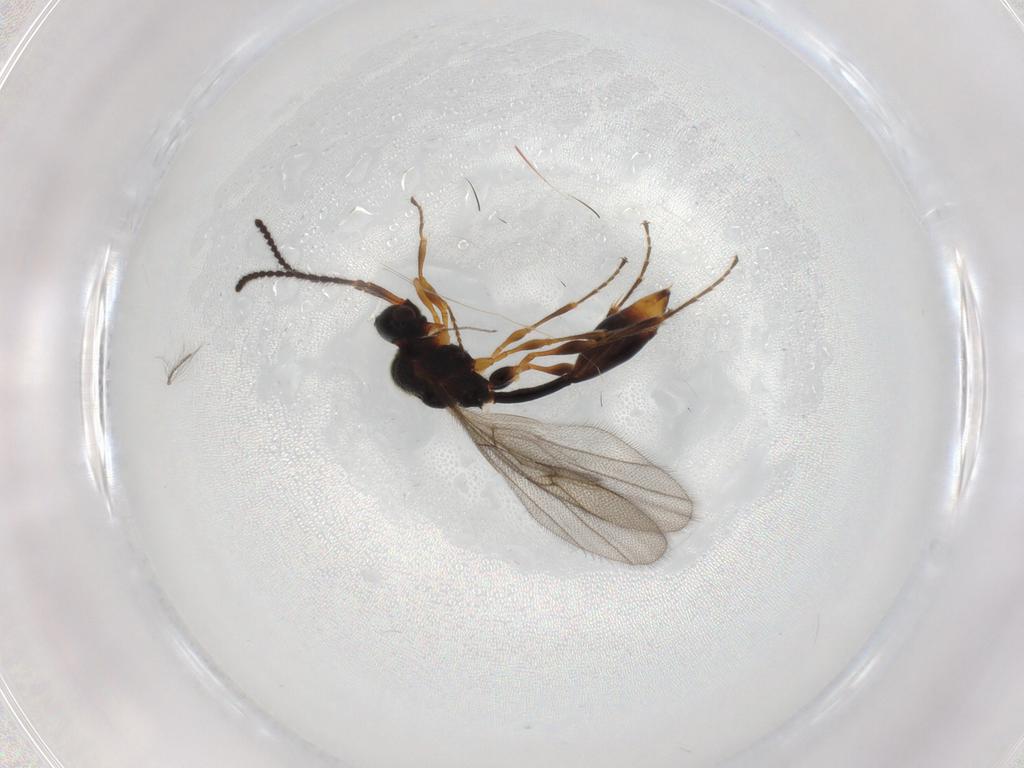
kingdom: Animalia
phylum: Arthropoda
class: Insecta
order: Hymenoptera
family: Diapriidae
